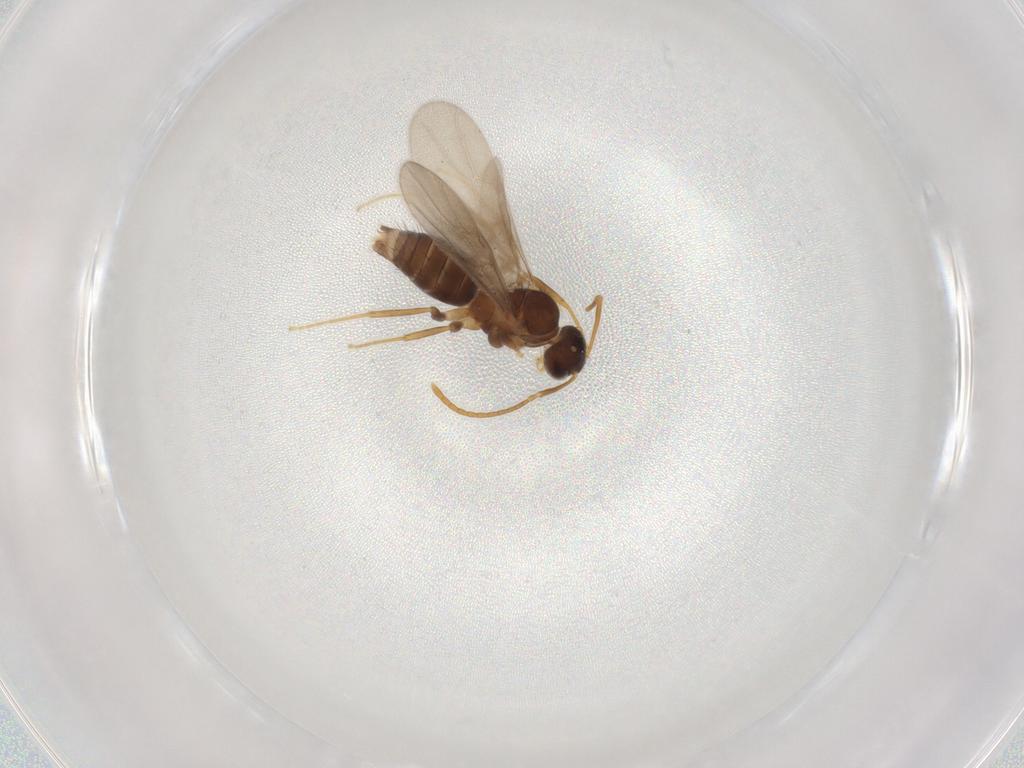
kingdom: Animalia
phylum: Arthropoda
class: Insecta
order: Hymenoptera
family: Formicidae
